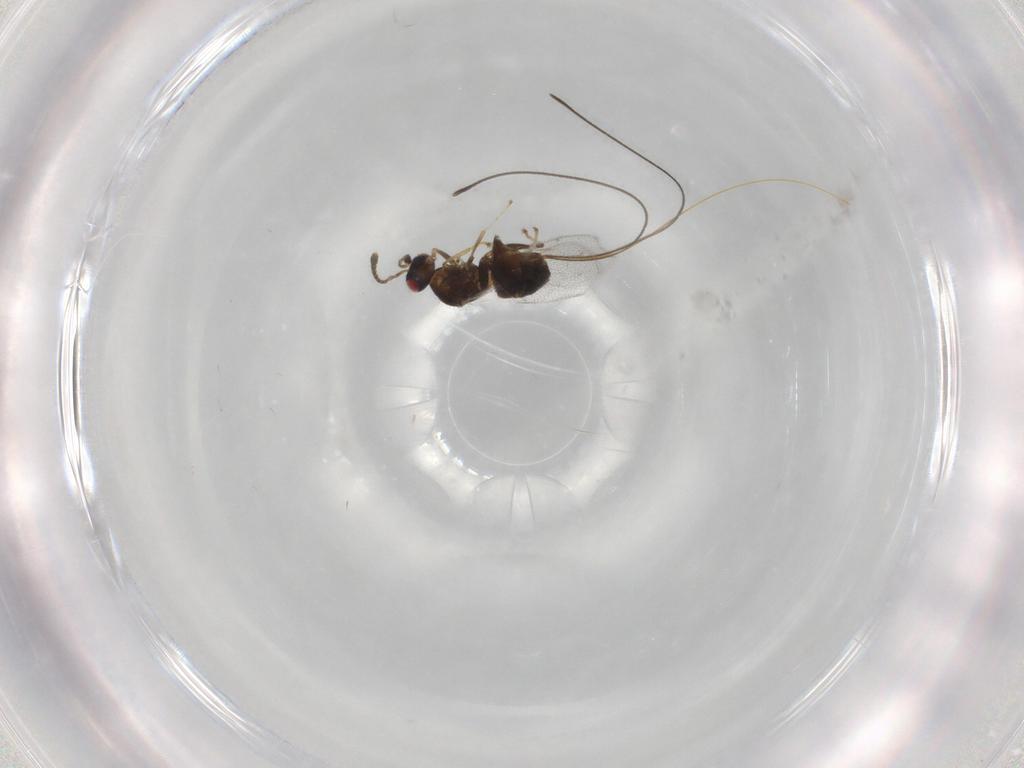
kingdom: Animalia
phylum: Arthropoda
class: Insecta
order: Hymenoptera
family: Torymidae
